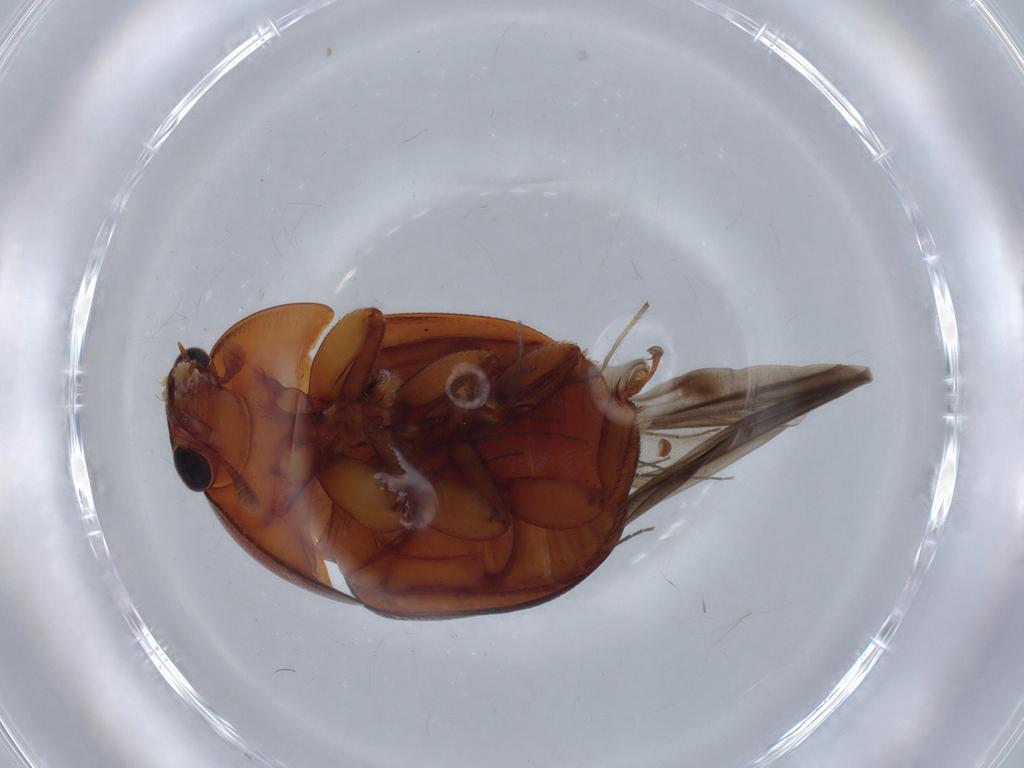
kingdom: Animalia
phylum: Arthropoda
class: Insecta
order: Coleoptera
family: Nitidulidae
